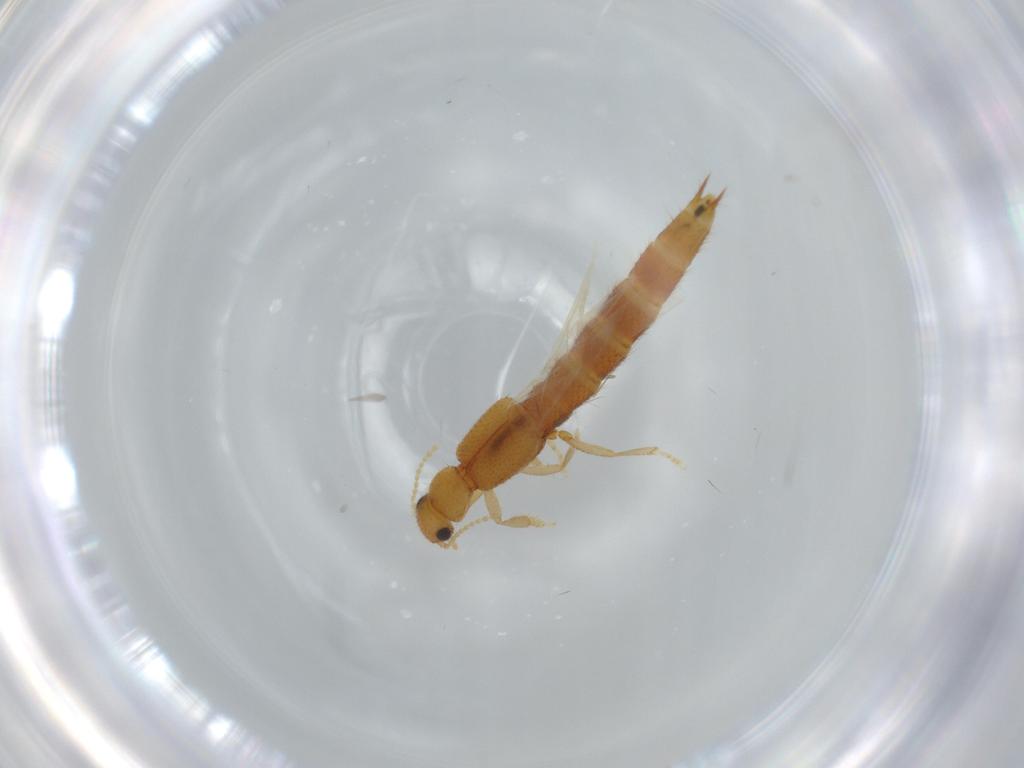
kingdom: Animalia
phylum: Arthropoda
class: Insecta
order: Coleoptera
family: Staphylinidae
